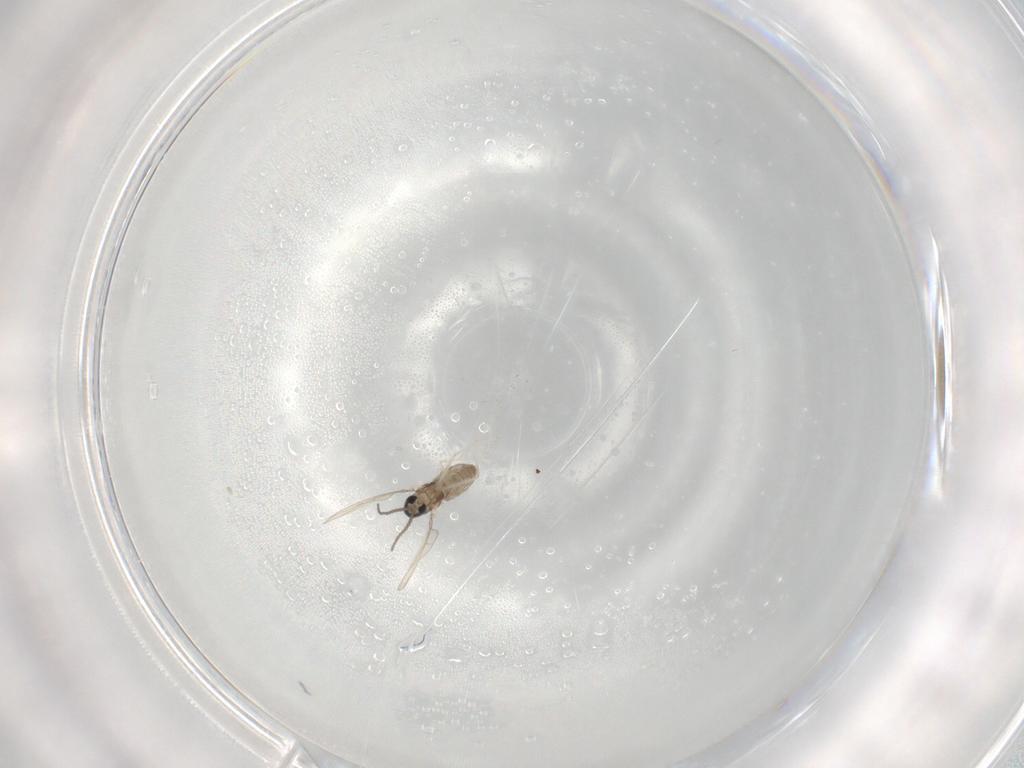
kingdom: Animalia
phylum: Arthropoda
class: Insecta
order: Diptera
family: Cecidomyiidae
